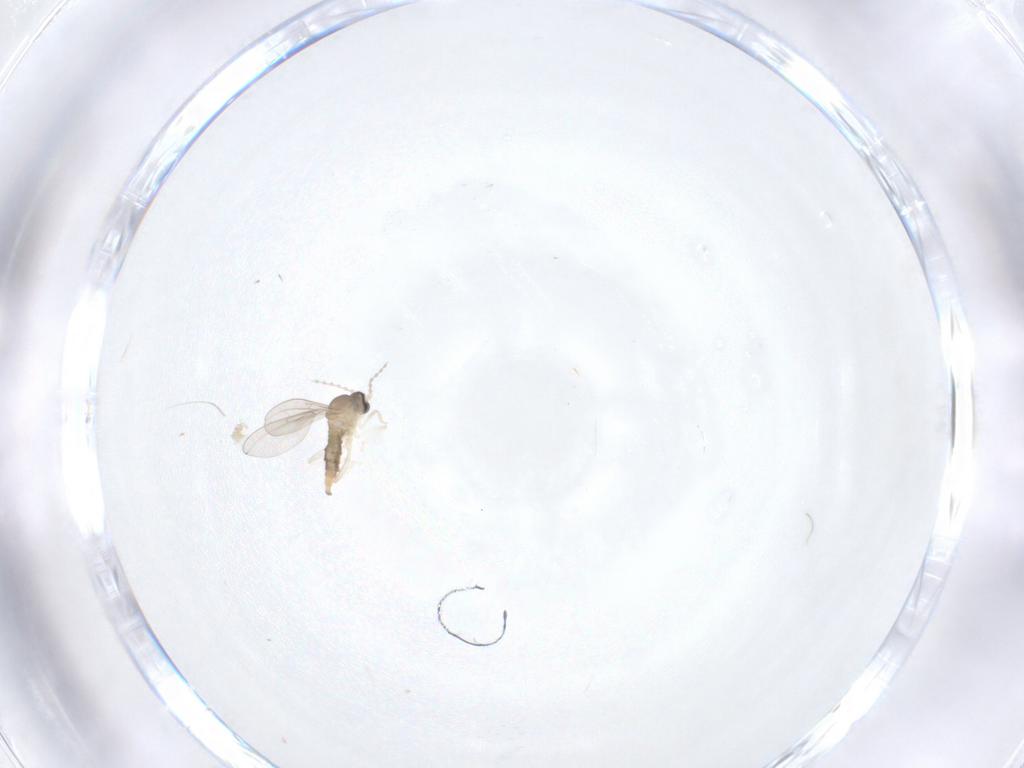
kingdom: Animalia
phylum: Arthropoda
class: Insecta
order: Diptera
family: Cecidomyiidae
